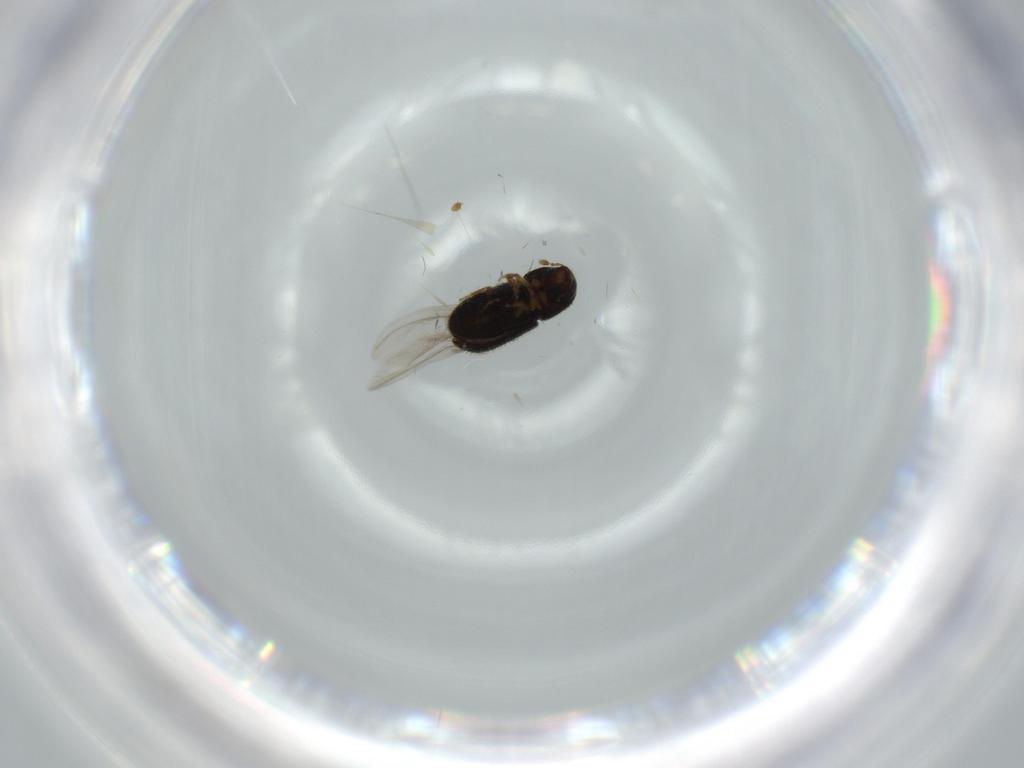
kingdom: Animalia
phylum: Arthropoda
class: Insecta
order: Coleoptera
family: Curculionidae
